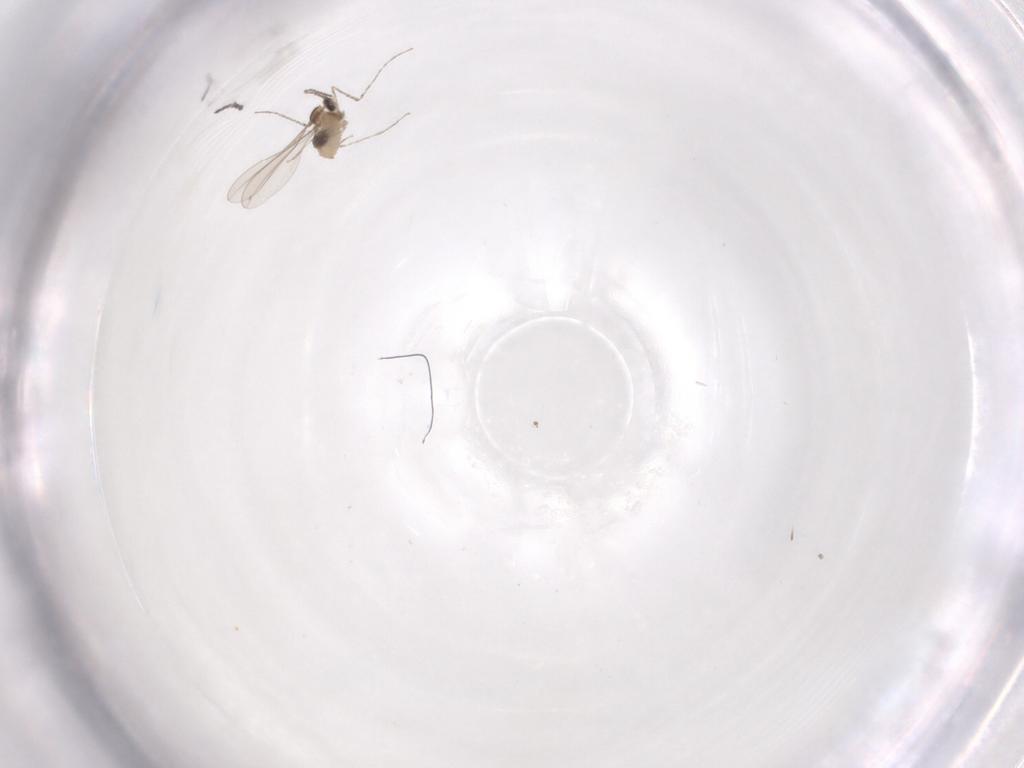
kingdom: Animalia
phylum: Arthropoda
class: Insecta
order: Diptera
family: Cecidomyiidae
